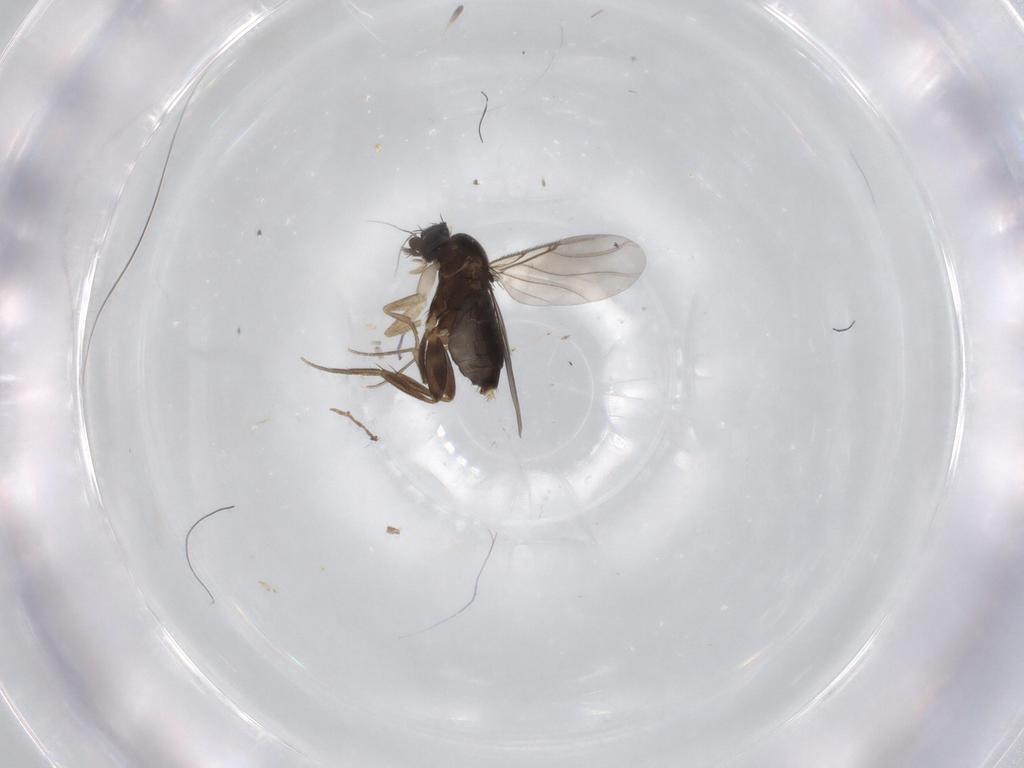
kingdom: Animalia
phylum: Arthropoda
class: Insecta
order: Diptera
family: Phoridae
